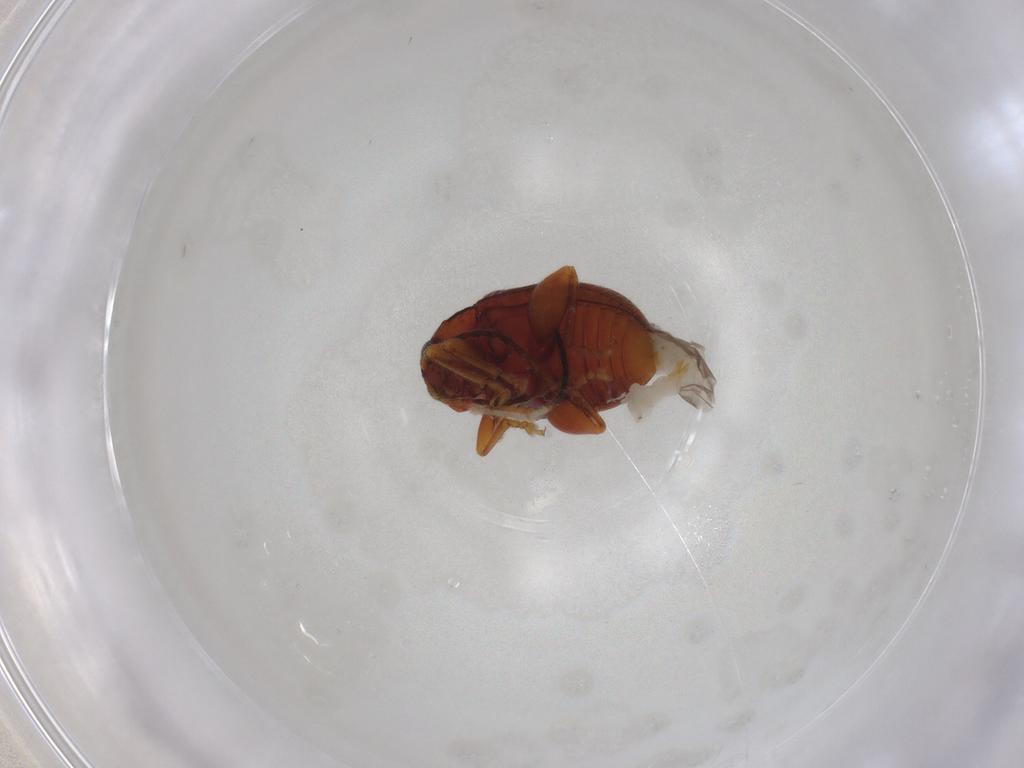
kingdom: Animalia
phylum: Arthropoda
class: Insecta
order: Coleoptera
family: Chrysomelidae
